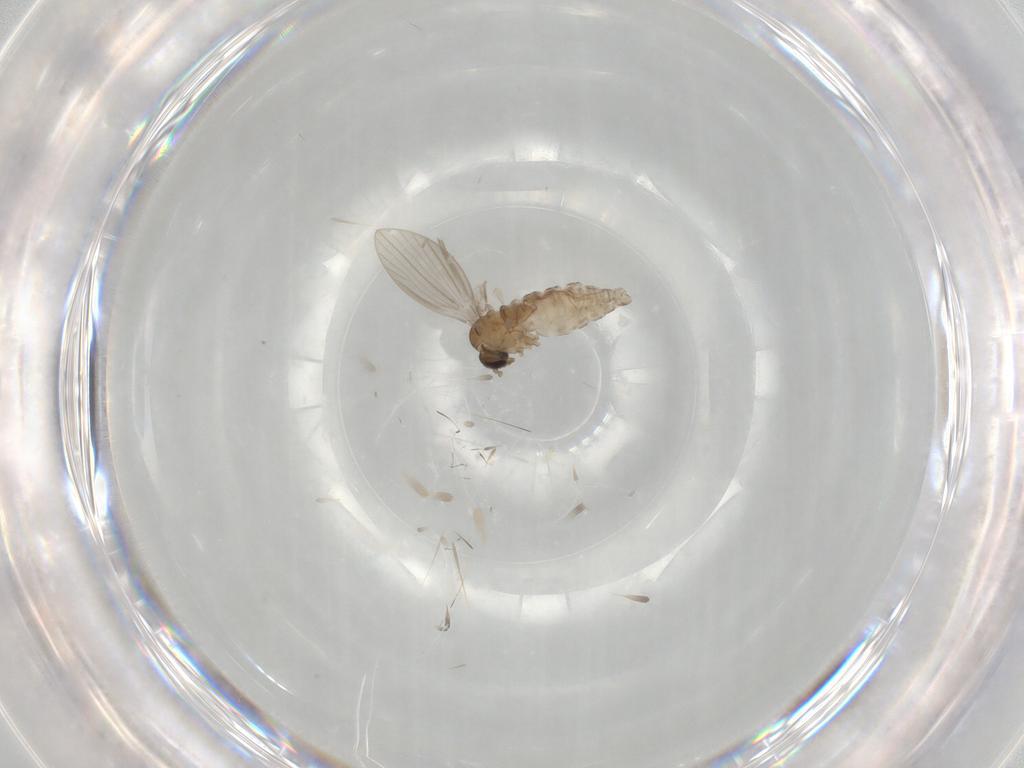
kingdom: Animalia
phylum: Arthropoda
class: Insecta
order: Diptera
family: Psychodidae
